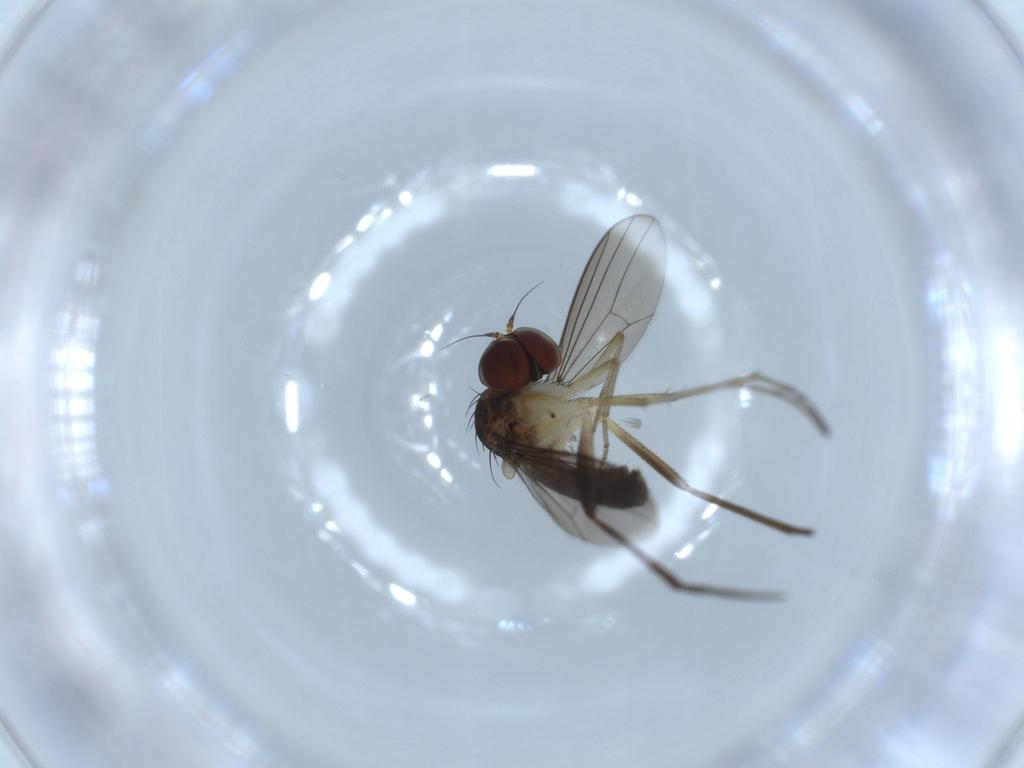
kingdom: Animalia
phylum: Arthropoda
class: Insecta
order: Diptera
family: Dolichopodidae
